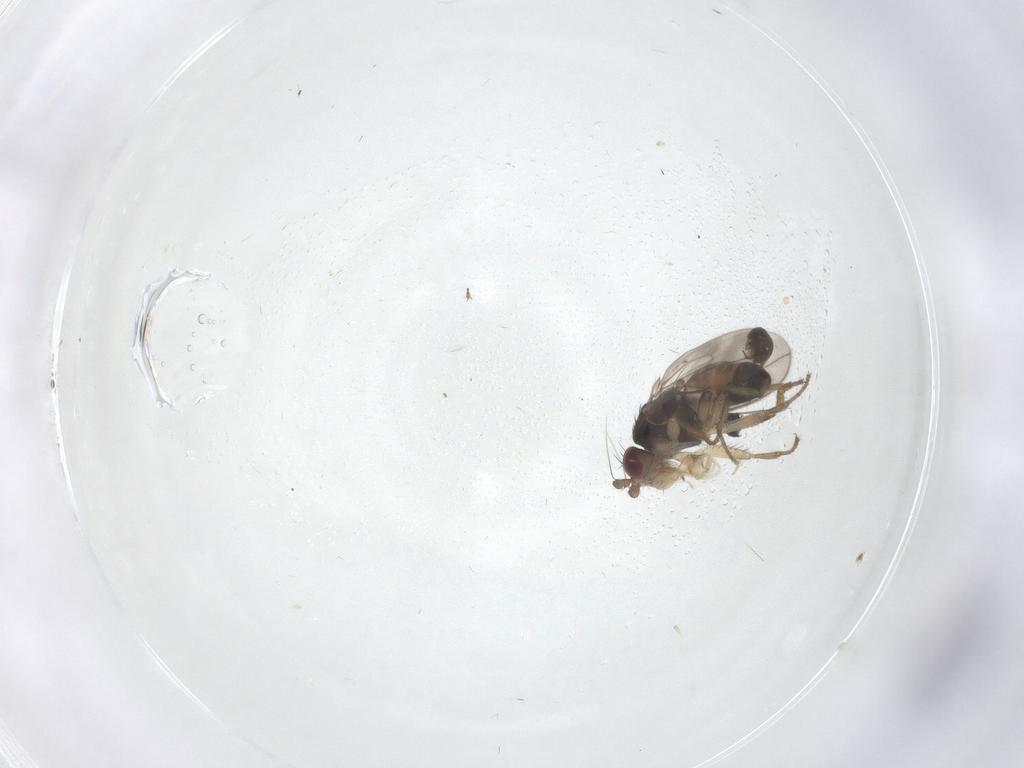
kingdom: Animalia
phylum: Arthropoda
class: Insecta
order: Diptera
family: Sphaeroceridae
